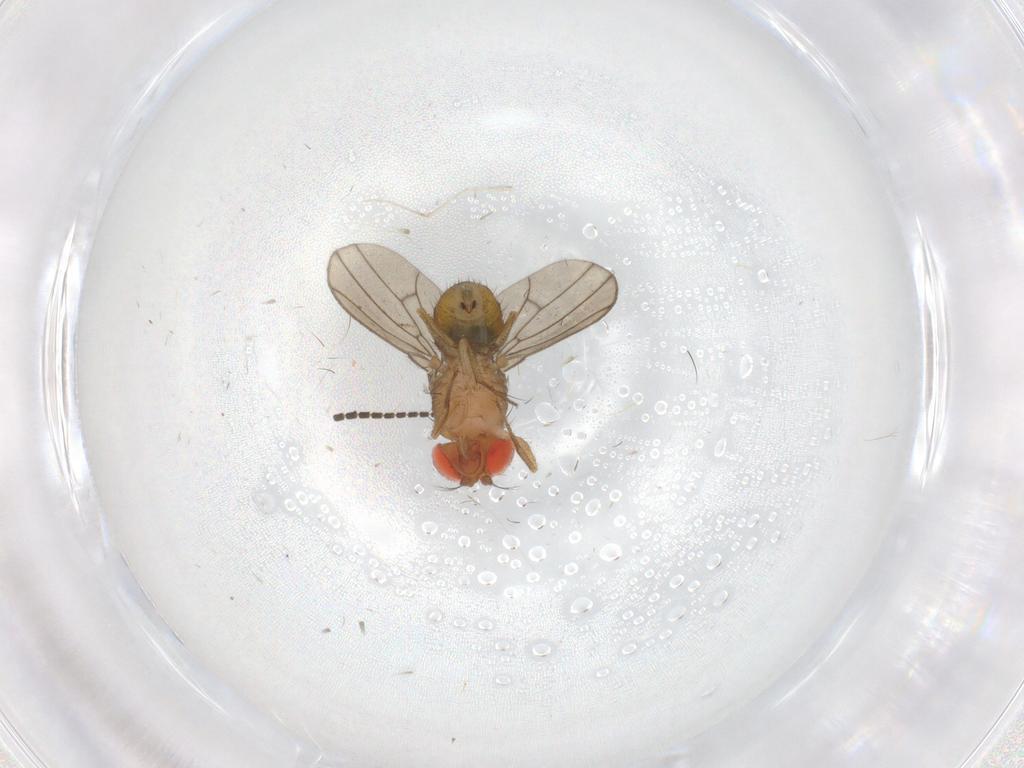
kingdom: Animalia
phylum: Arthropoda
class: Insecta
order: Diptera
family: Drosophilidae
